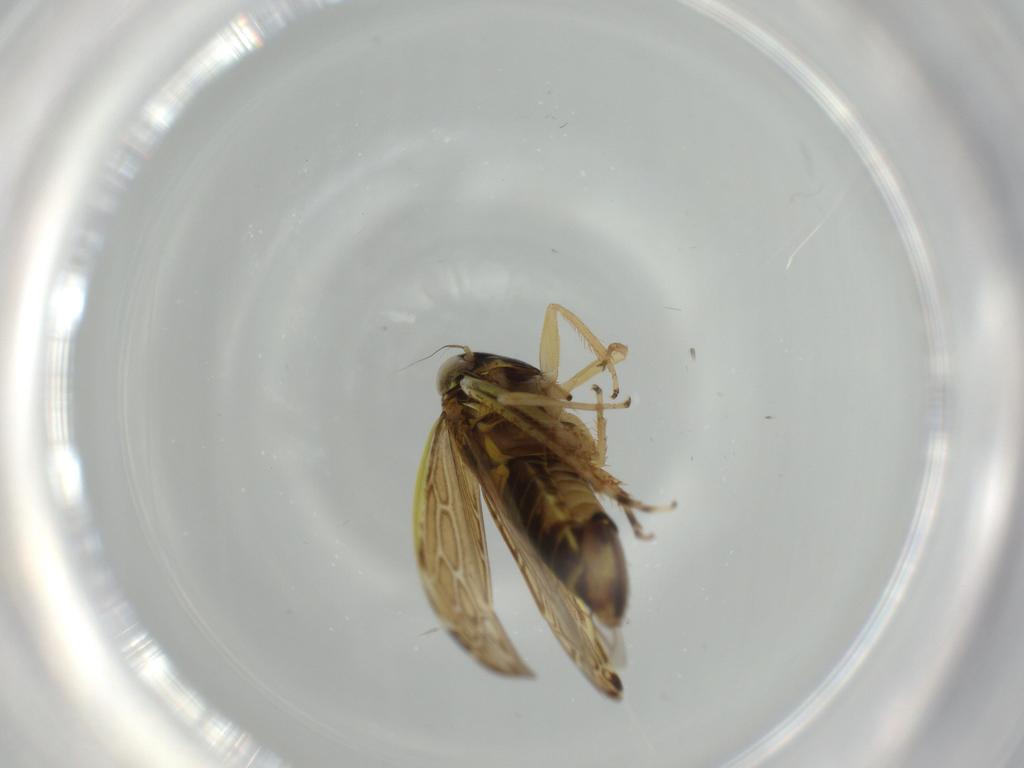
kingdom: Animalia
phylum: Arthropoda
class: Insecta
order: Hemiptera
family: Cicadellidae
